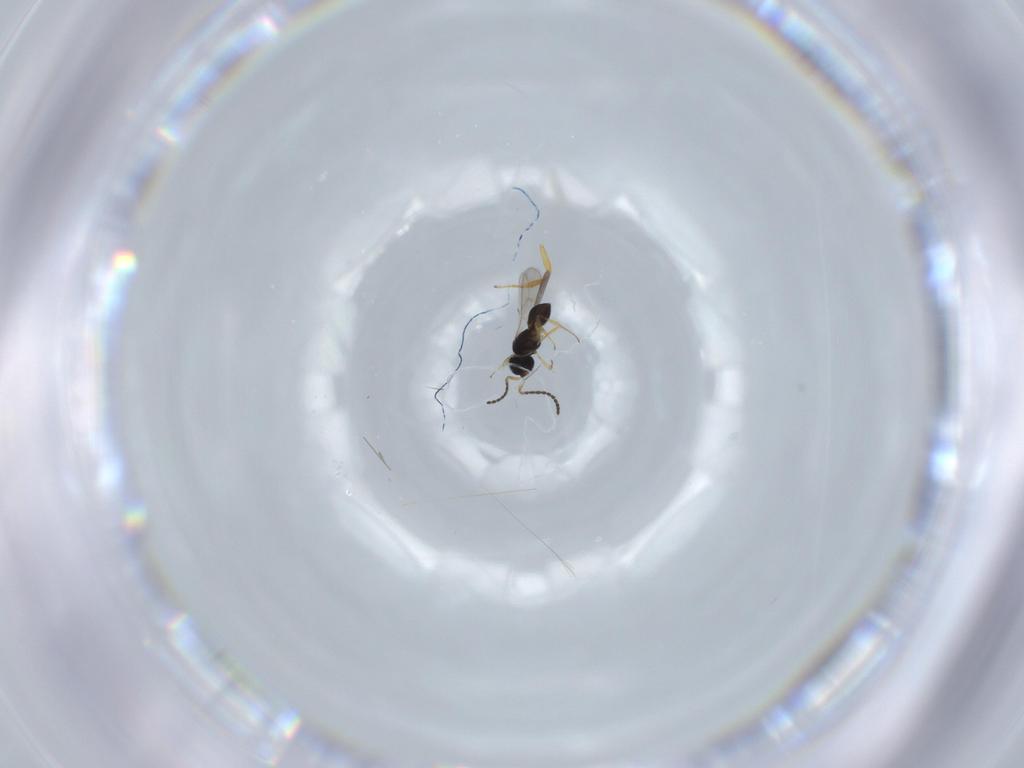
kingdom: Animalia
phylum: Arthropoda
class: Insecta
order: Hymenoptera
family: Scelionidae
